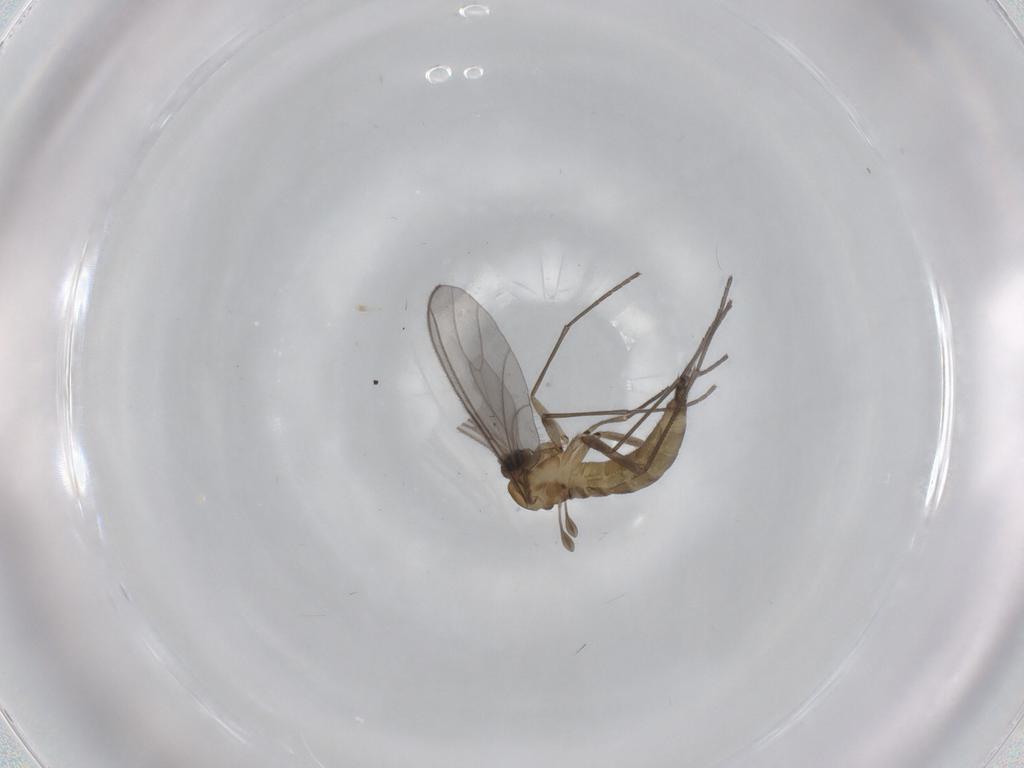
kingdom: Animalia
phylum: Arthropoda
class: Insecta
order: Diptera
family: Sciaridae
